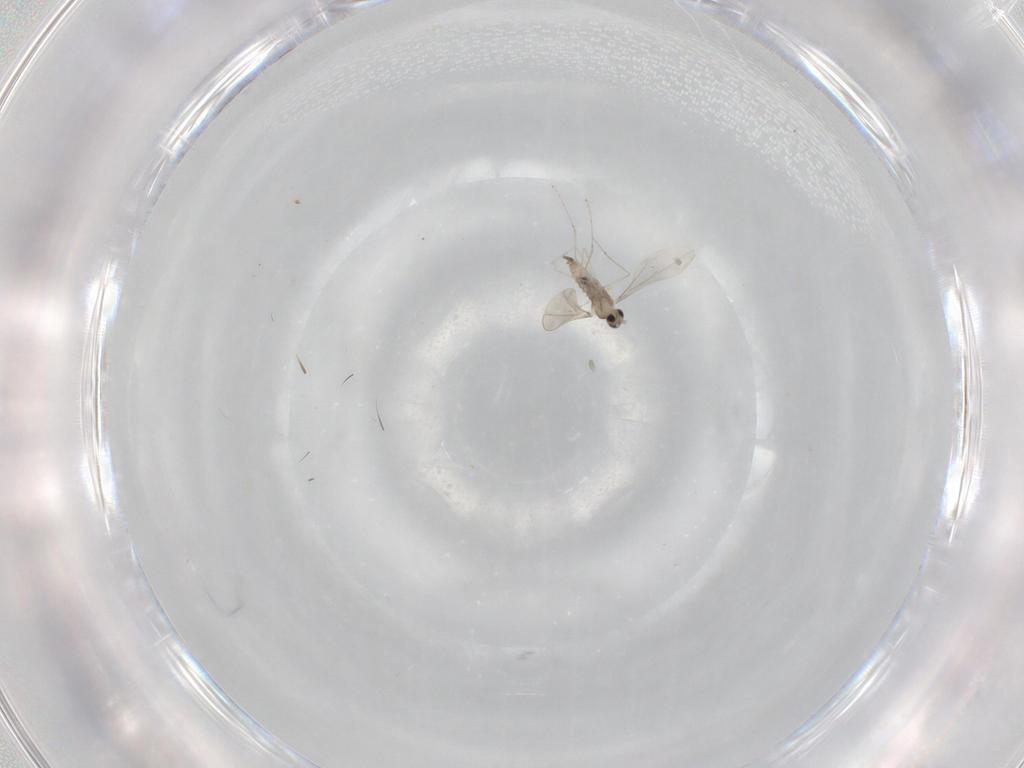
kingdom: Animalia
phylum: Arthropoda
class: Insecta
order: Diptera
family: Cecidomyiidae
